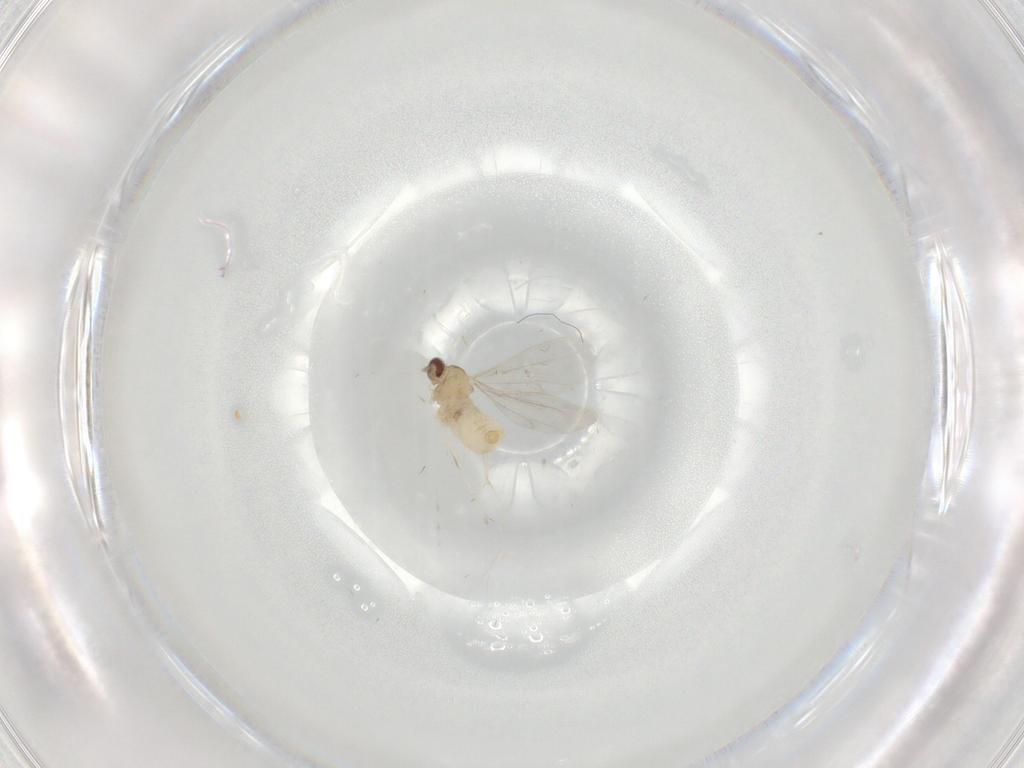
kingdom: Animalia
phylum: Arthropoda
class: Insecta
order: Diptera
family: Cecidomyiidae
